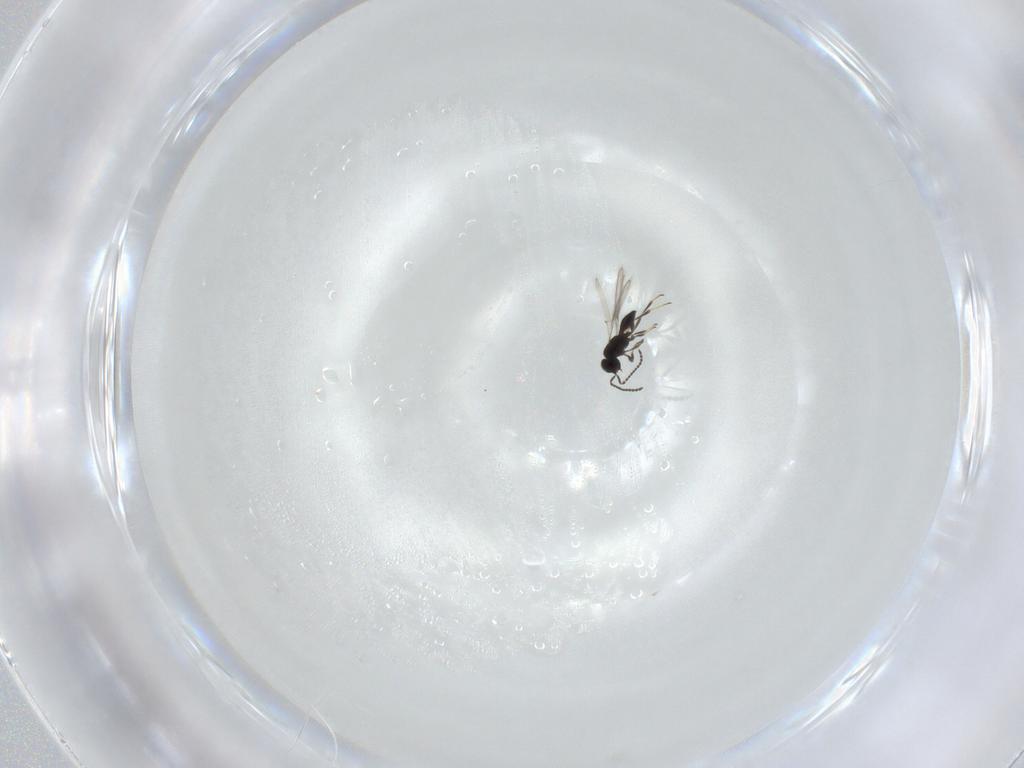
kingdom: Animalia
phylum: Arthropoda
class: Insecta
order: Hymenoptera
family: Scelionidae
